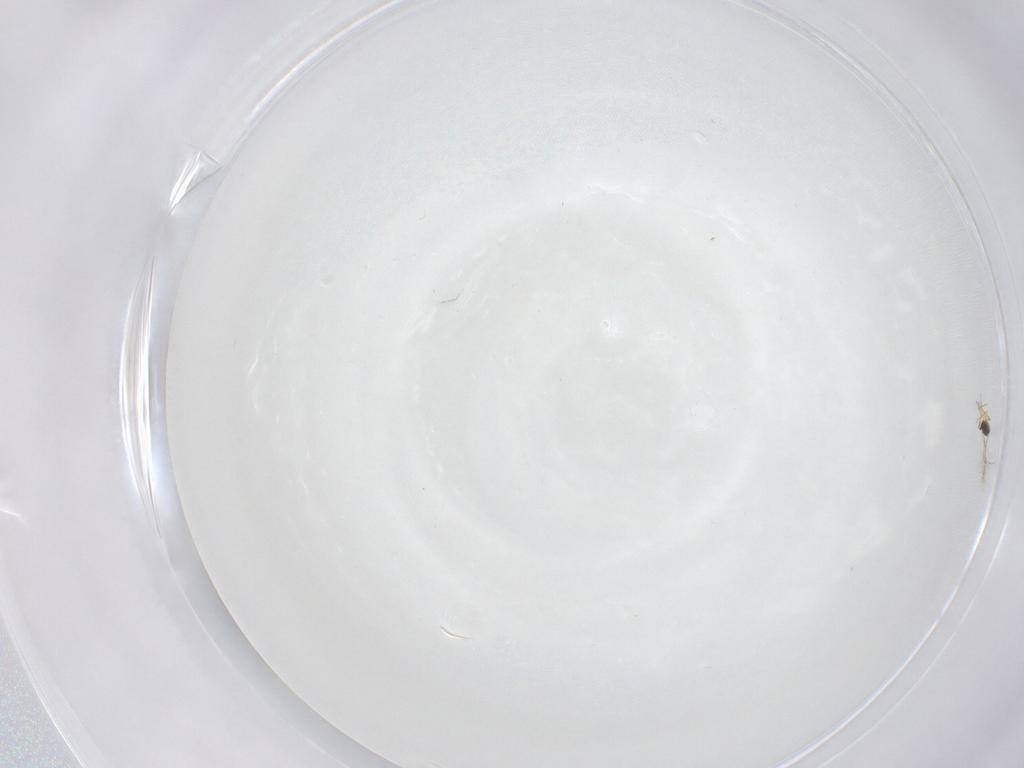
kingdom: Animalia
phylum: Arthropoda
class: Insecta
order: Hymenoptera
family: Mymaridae
